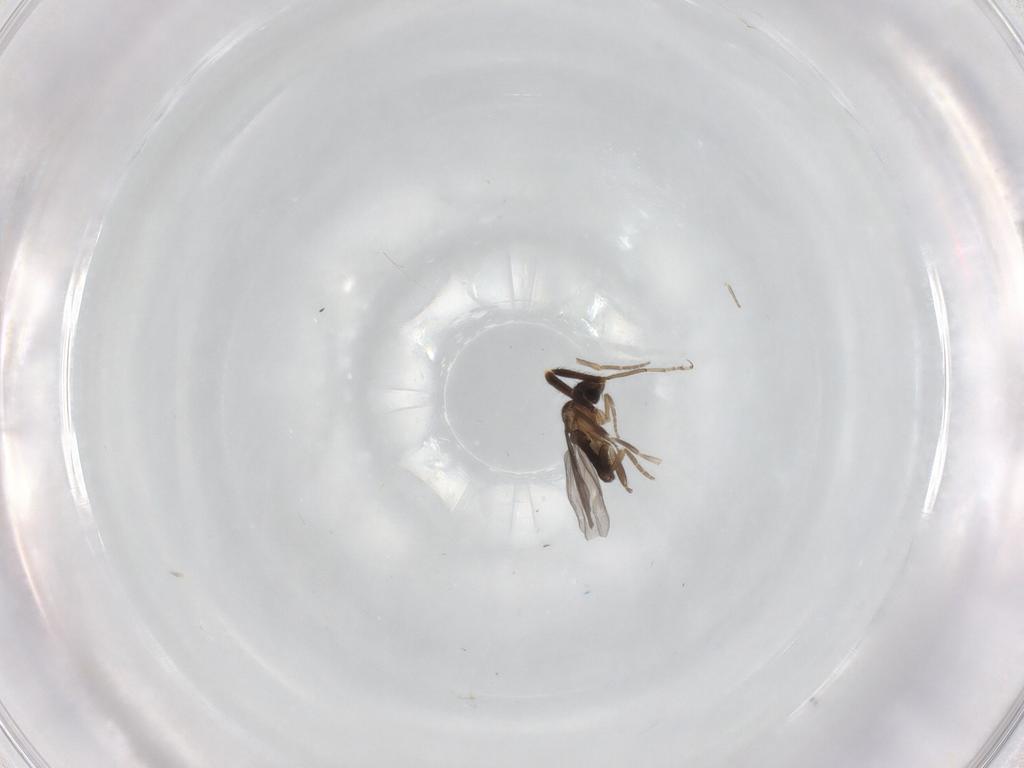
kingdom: Animalia
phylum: Arthropoda
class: Insecta
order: Diptera
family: Ceratopogonidae
